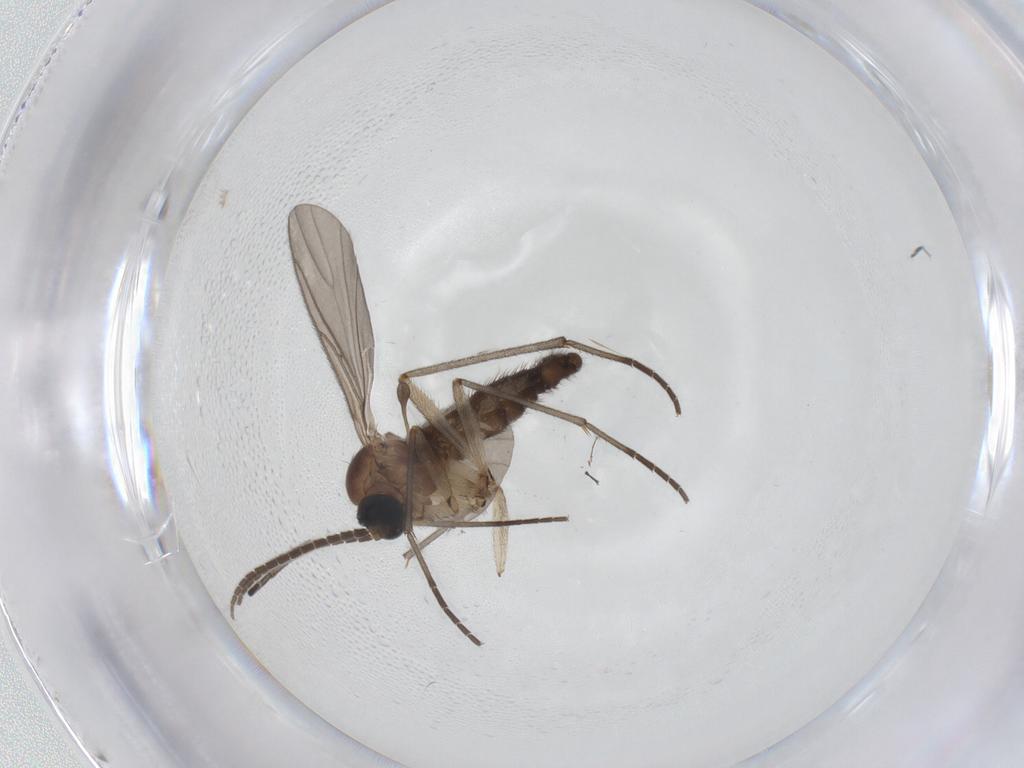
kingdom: Animalia
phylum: Arthropoda
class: Insecta
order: Diptera
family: Sciaridae
